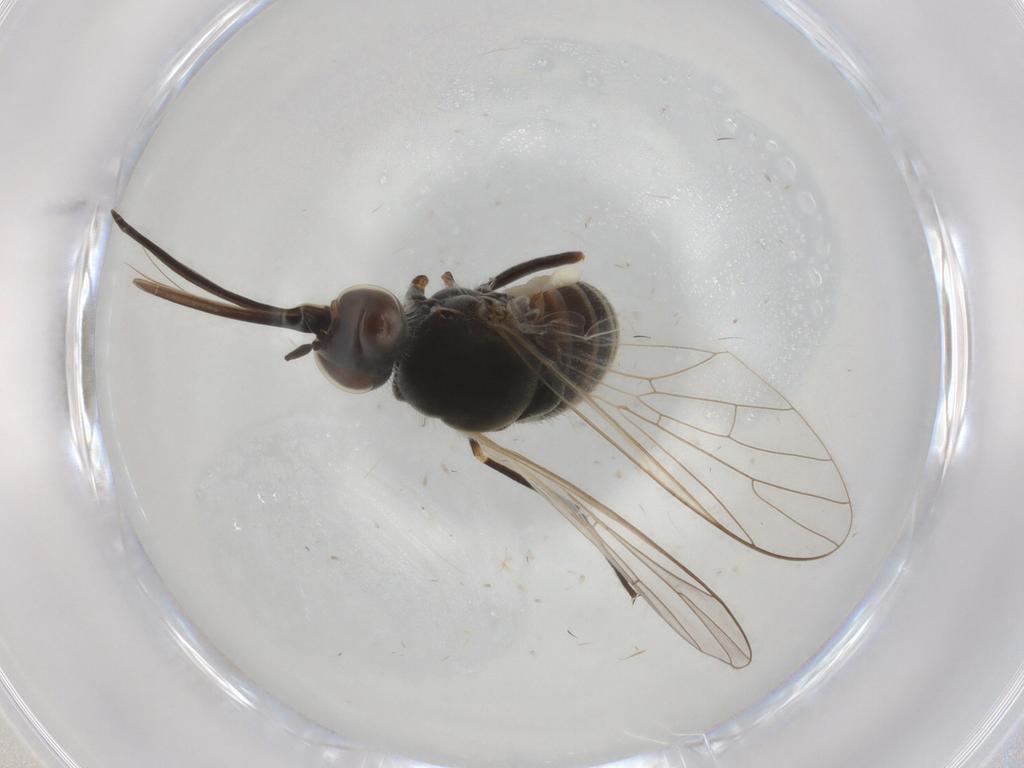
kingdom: Animalia
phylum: Arthropoda
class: Insecta
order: Diptera
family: Bombyliidae
